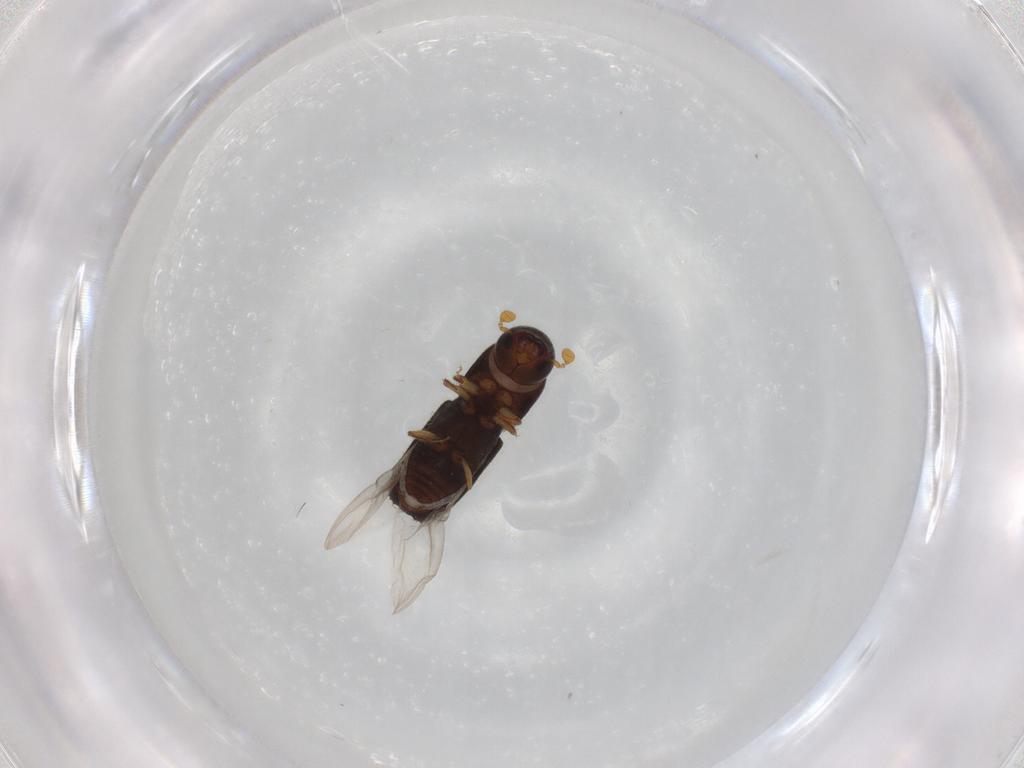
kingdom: Animalia
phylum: Arthropoda
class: Insecta
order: Coleoptera
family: Curculionidae
